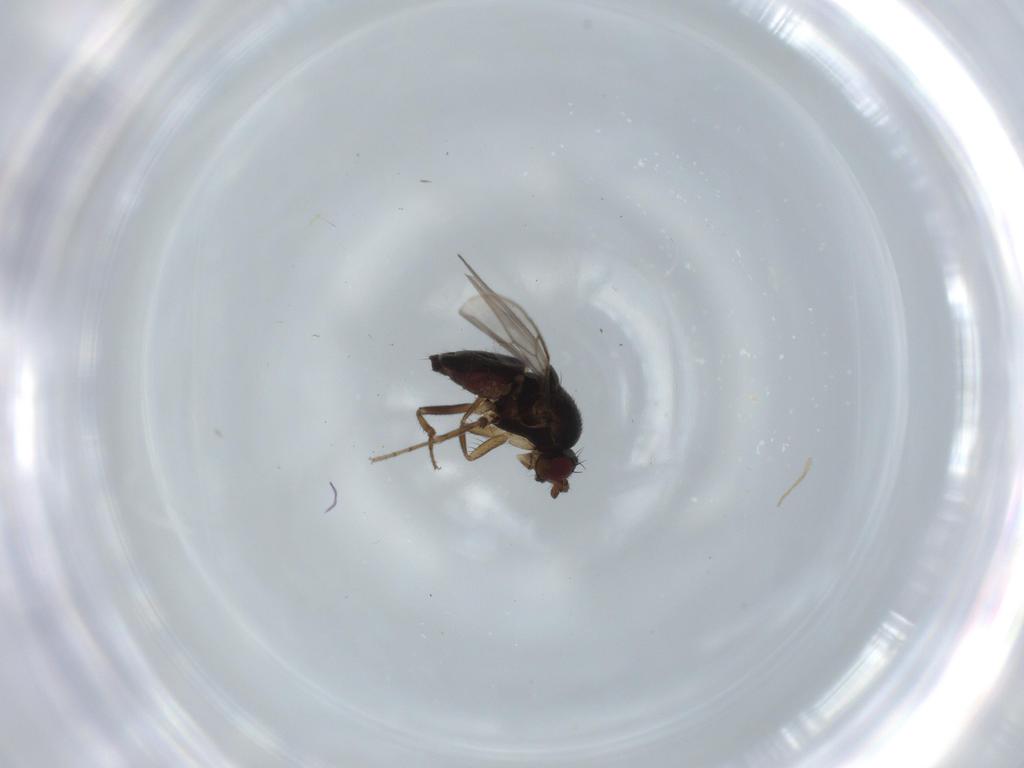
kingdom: Animalia
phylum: Arthropoda
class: Insecta
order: Diptera
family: Sphaeroceridae
